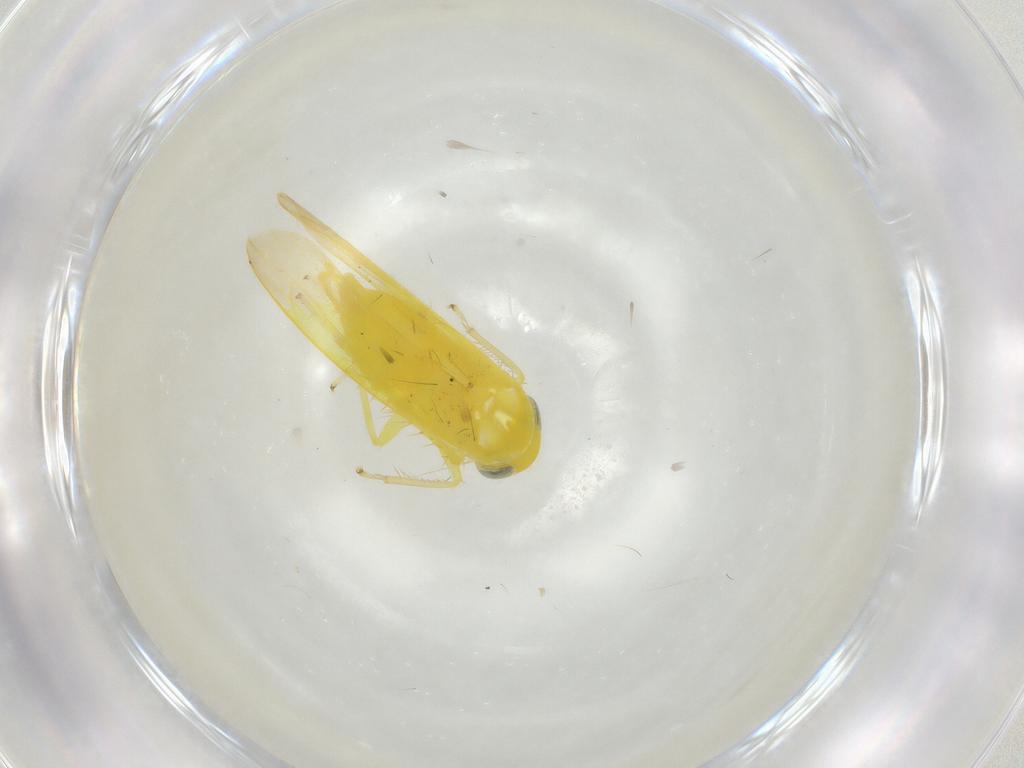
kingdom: Animalia
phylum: Arthropoda
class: Insecta
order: Hemiptera
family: Cicadellidae
